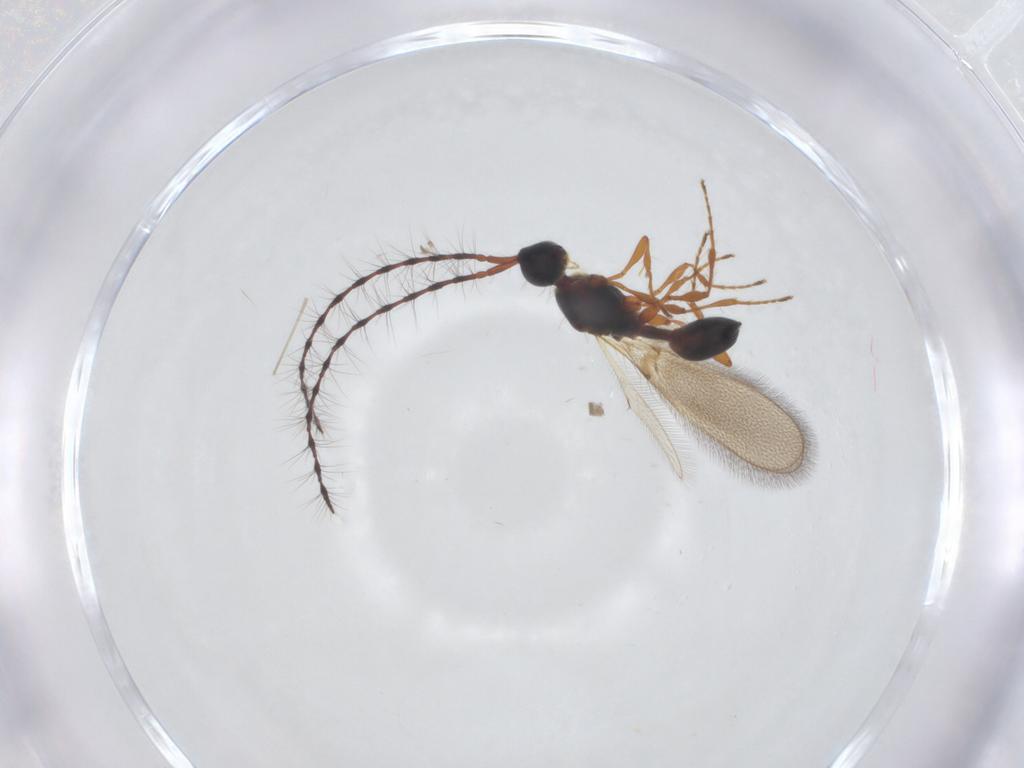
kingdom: Animalia
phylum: Arthropoda
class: Insecta
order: Hymenoptera
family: Diapriidae
